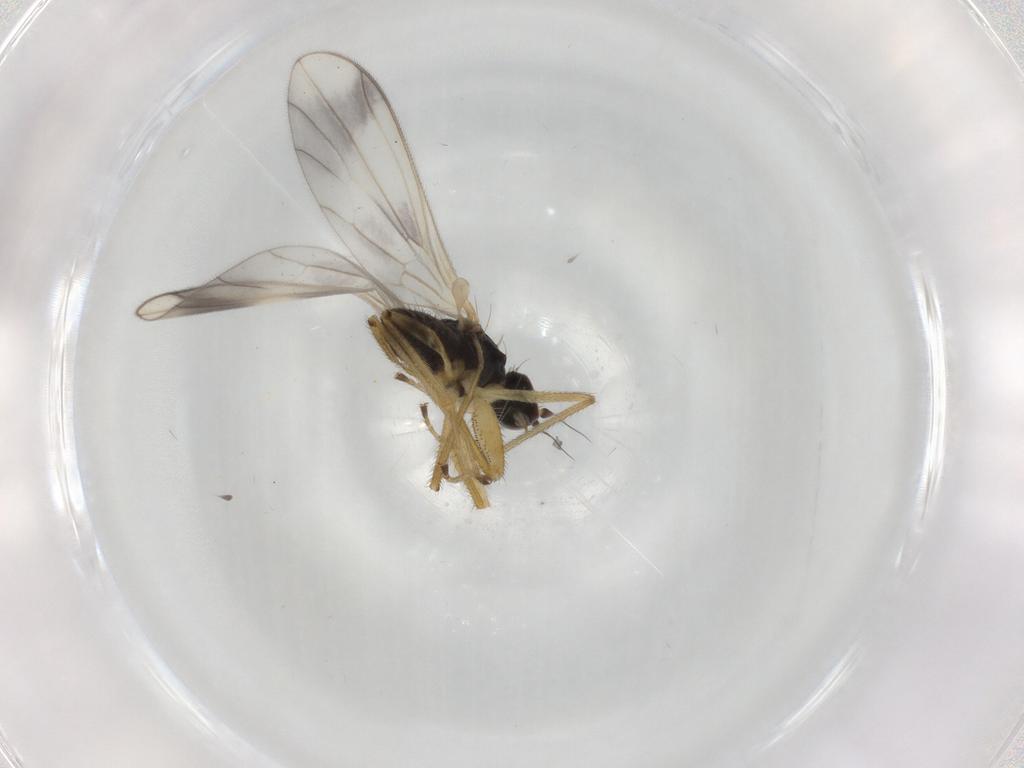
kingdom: Animalia
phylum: Arthropoda
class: Insecta
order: Diptera
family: Chironomidae
